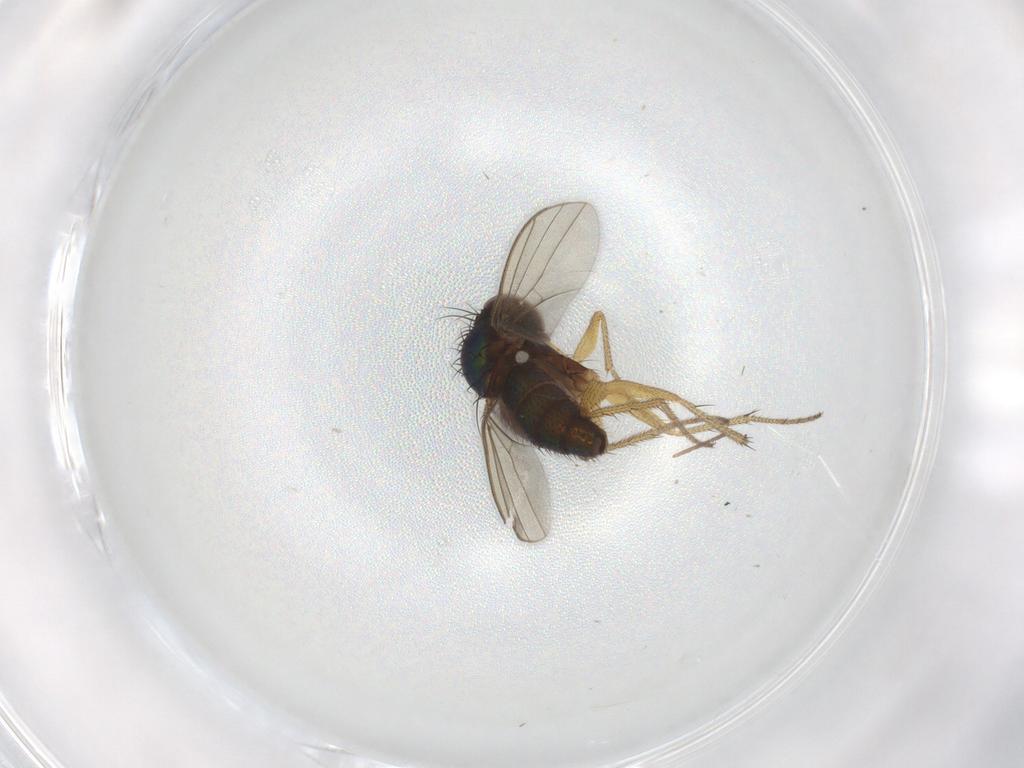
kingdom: Animalia
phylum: Arthropoda
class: Insecta
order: Diptera
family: Dolichopodidae
